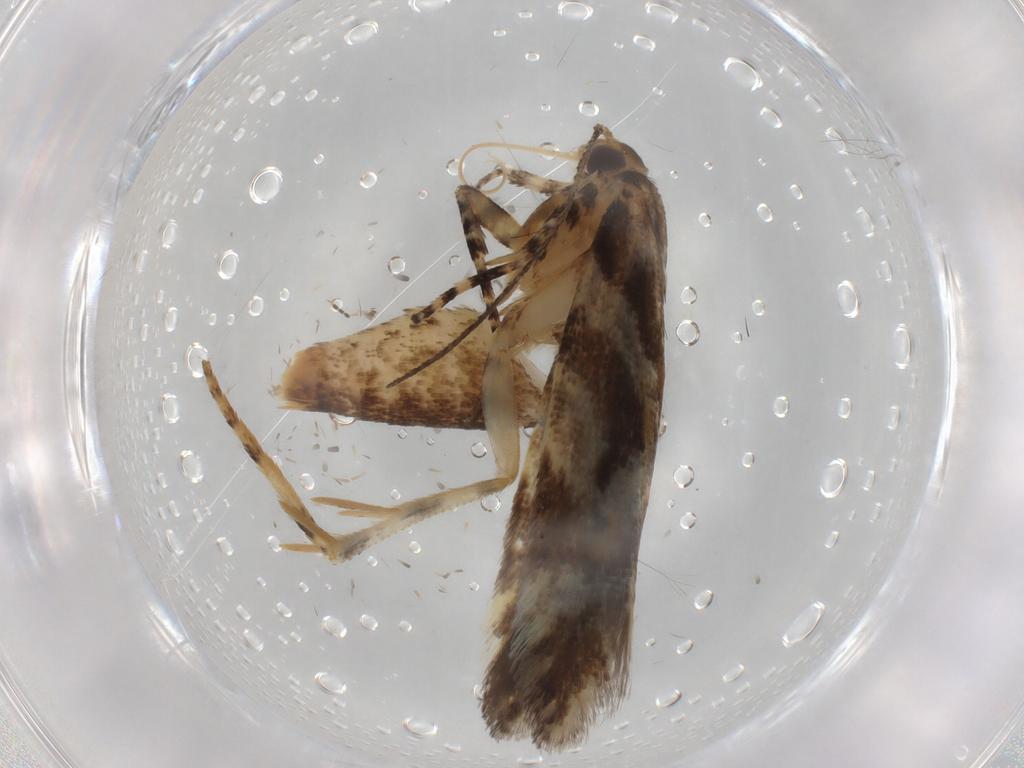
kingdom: Animalia
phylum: Arthropoda
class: Insecta
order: Lepidoptera
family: Gelechiidae
